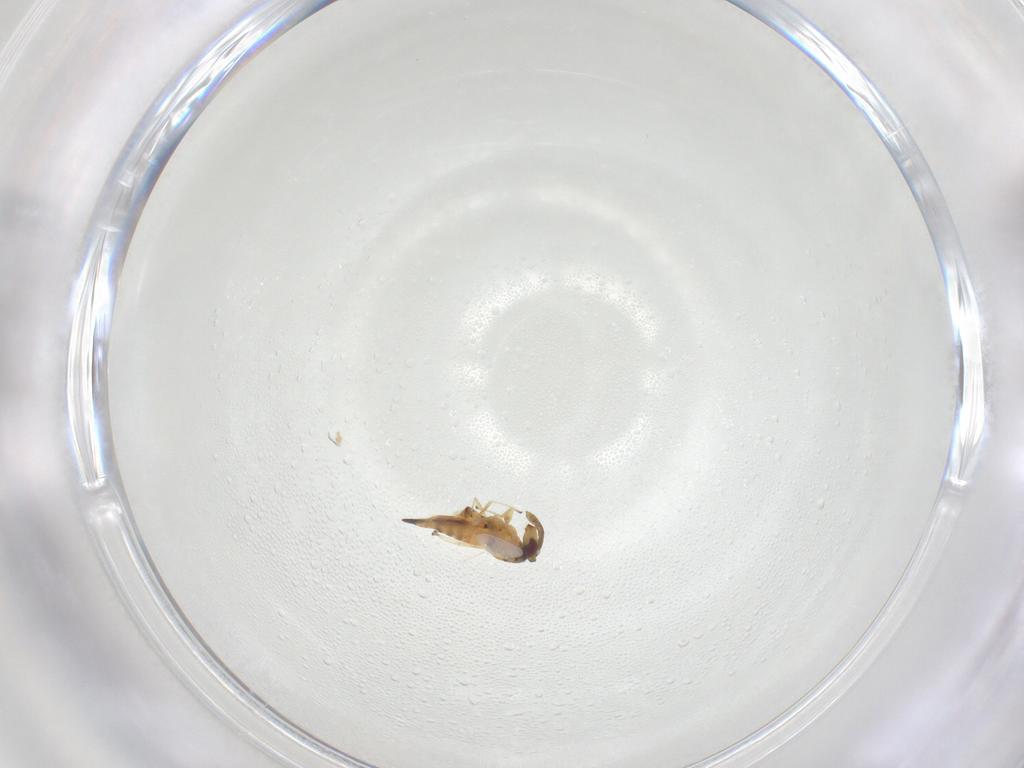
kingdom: Animalia
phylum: Arthropoda
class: Insecta
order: Hymenoptera
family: Eulophidae
